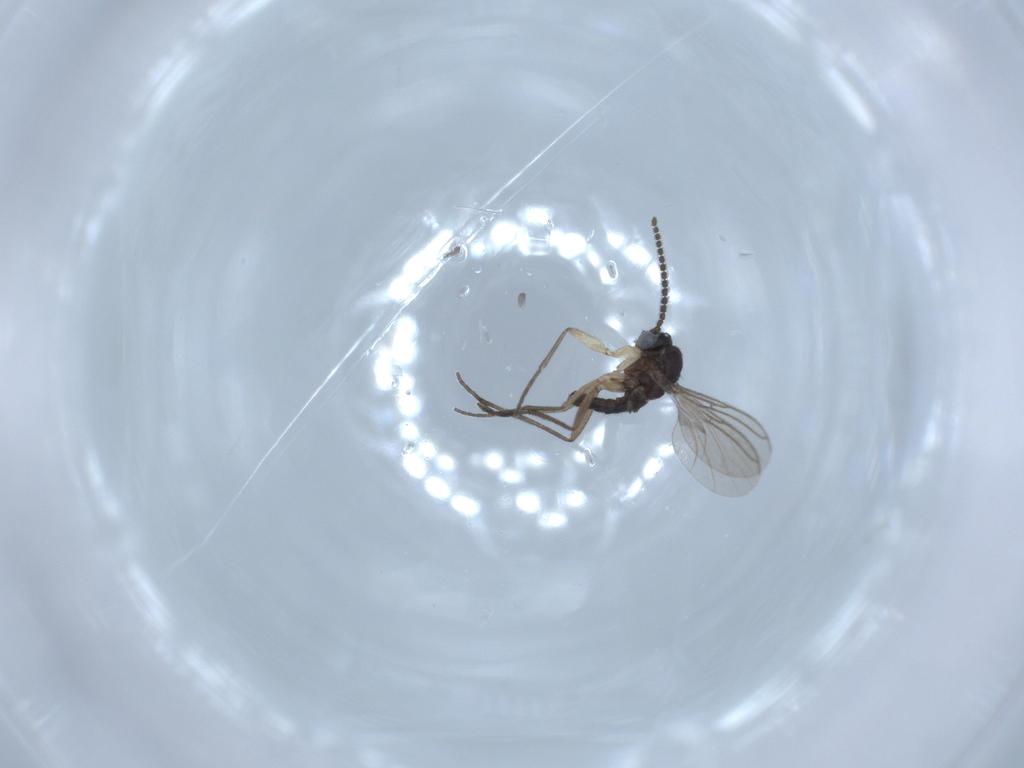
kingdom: Animalia
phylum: Arthropoda
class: Insecta
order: Diptera
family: Sciaridae
